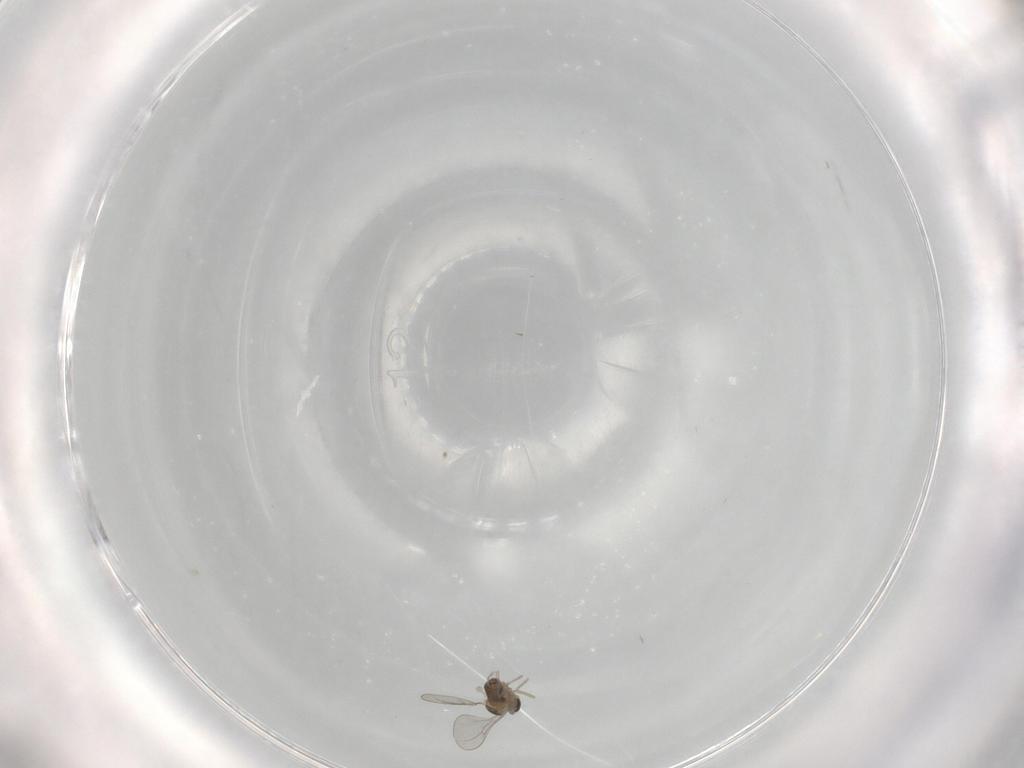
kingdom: Animalia
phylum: Arthropoda
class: Insecta
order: Diptera
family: Cecidomyiidae
